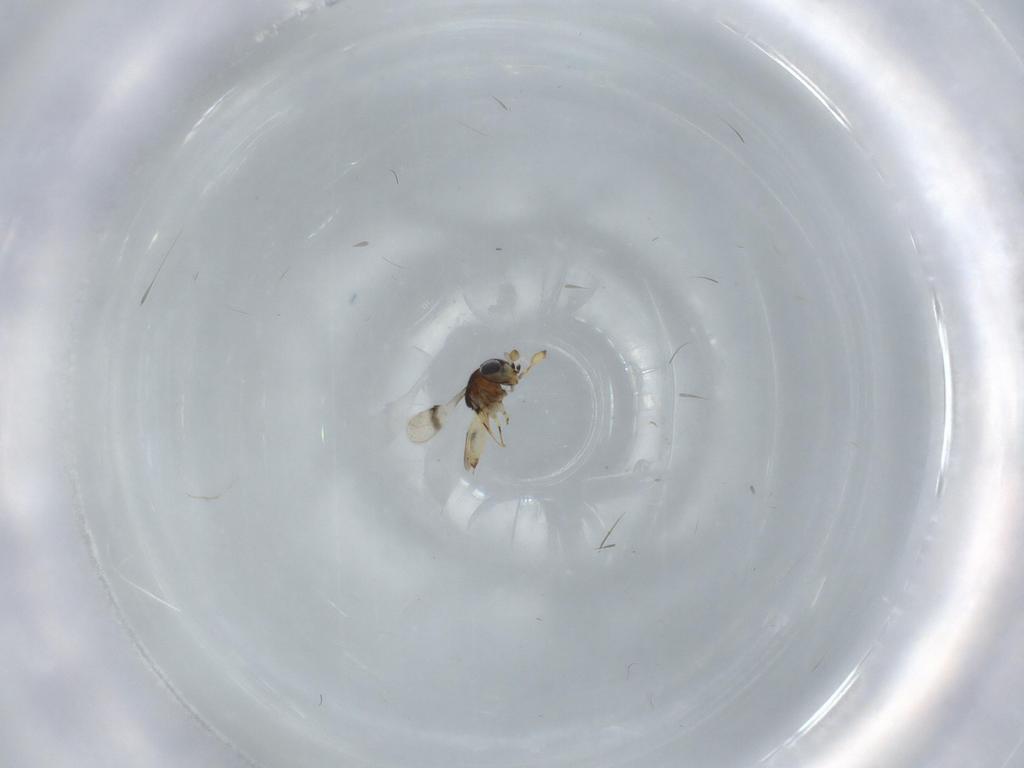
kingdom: Animalia
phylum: Arthropoda
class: Insecta
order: Hymenoptera
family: Scelionidae
